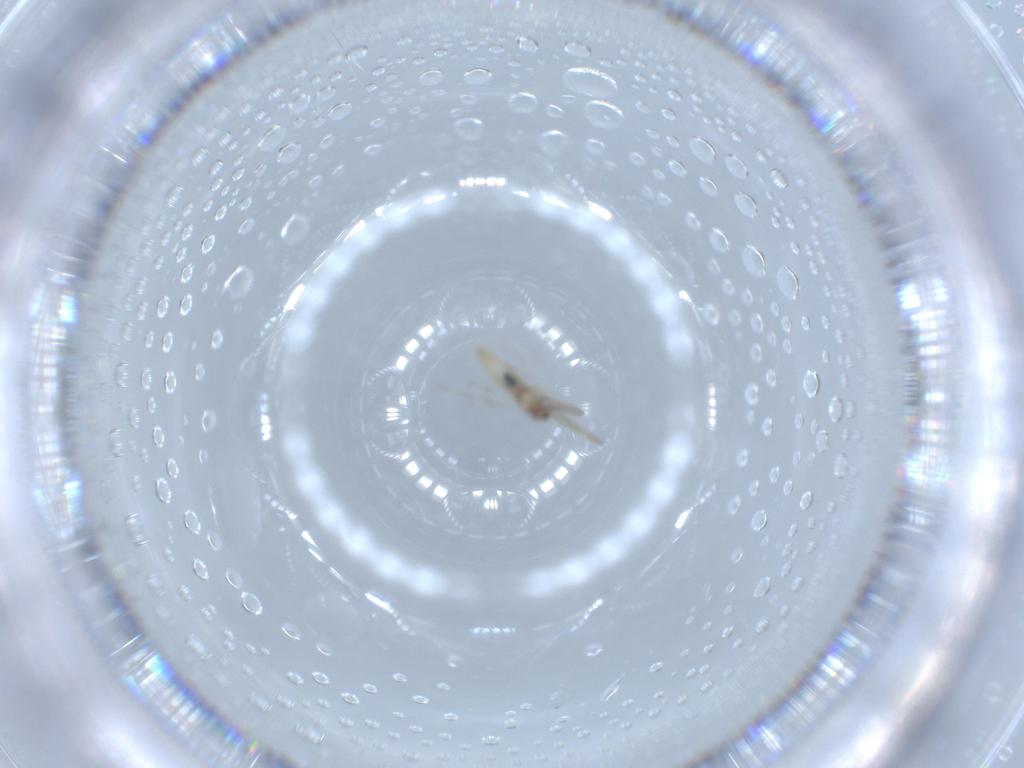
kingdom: Animalia
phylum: Arthropoda
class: Insecta
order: Diptera
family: Cecidomyiidae
